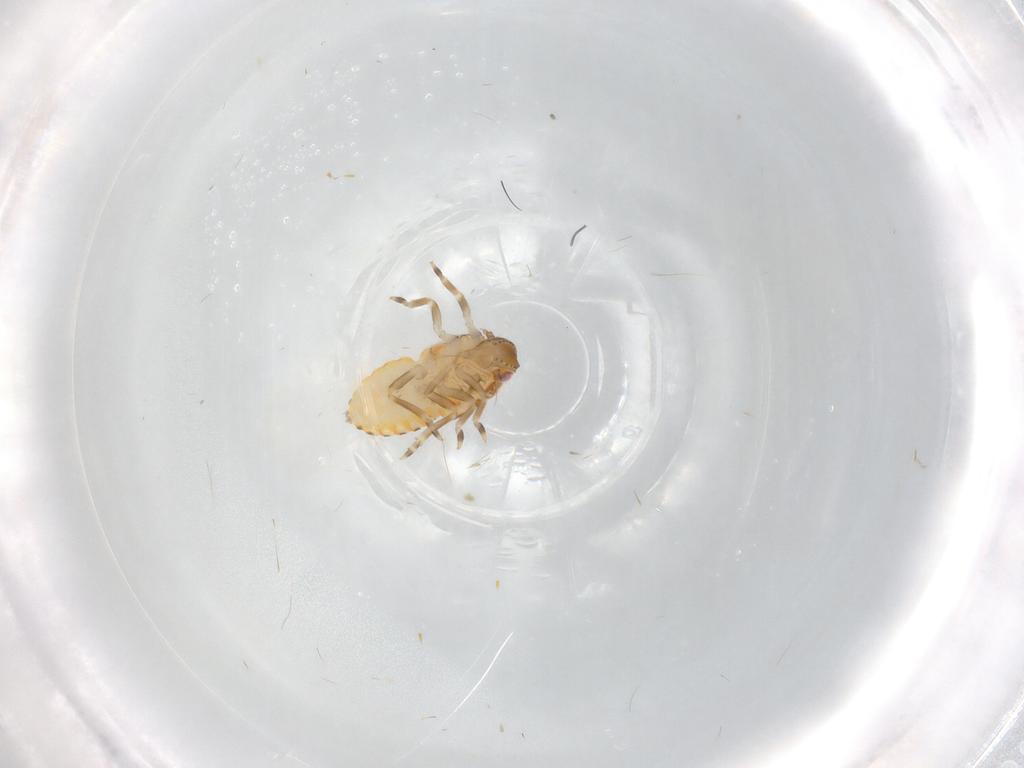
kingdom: Animalia
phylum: Arthropoda
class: Insecta
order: Hemiptera
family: Flatidae
